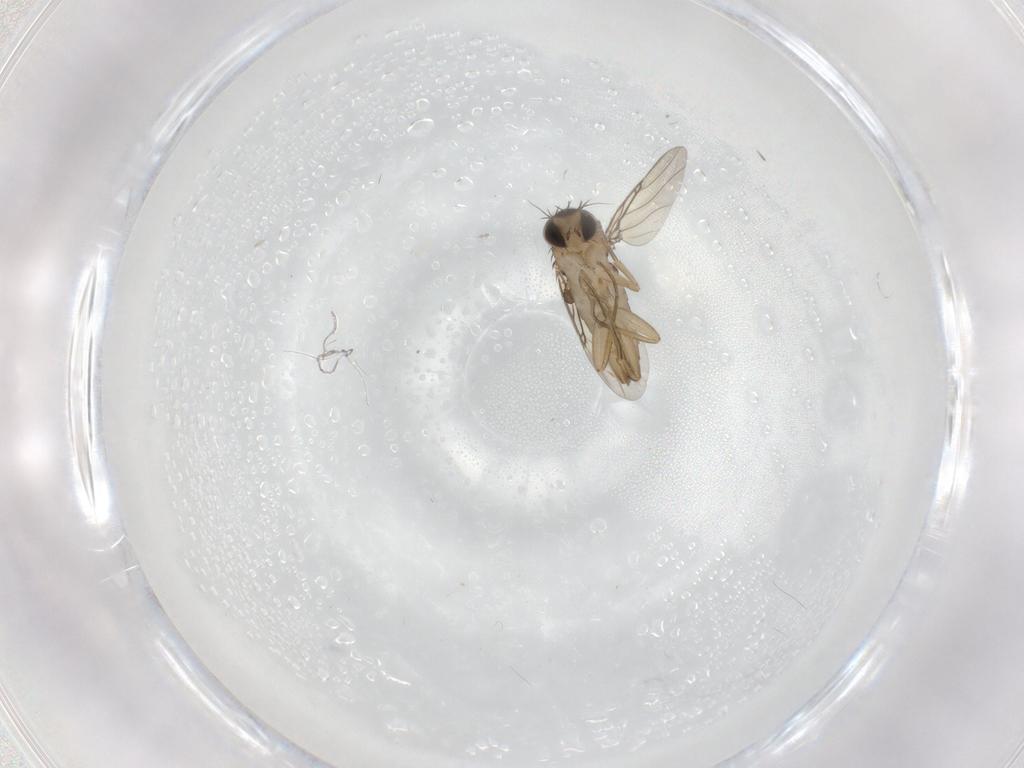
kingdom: Animalia
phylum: Arthropoda
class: Insecta
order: Diptera
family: Phoridae
